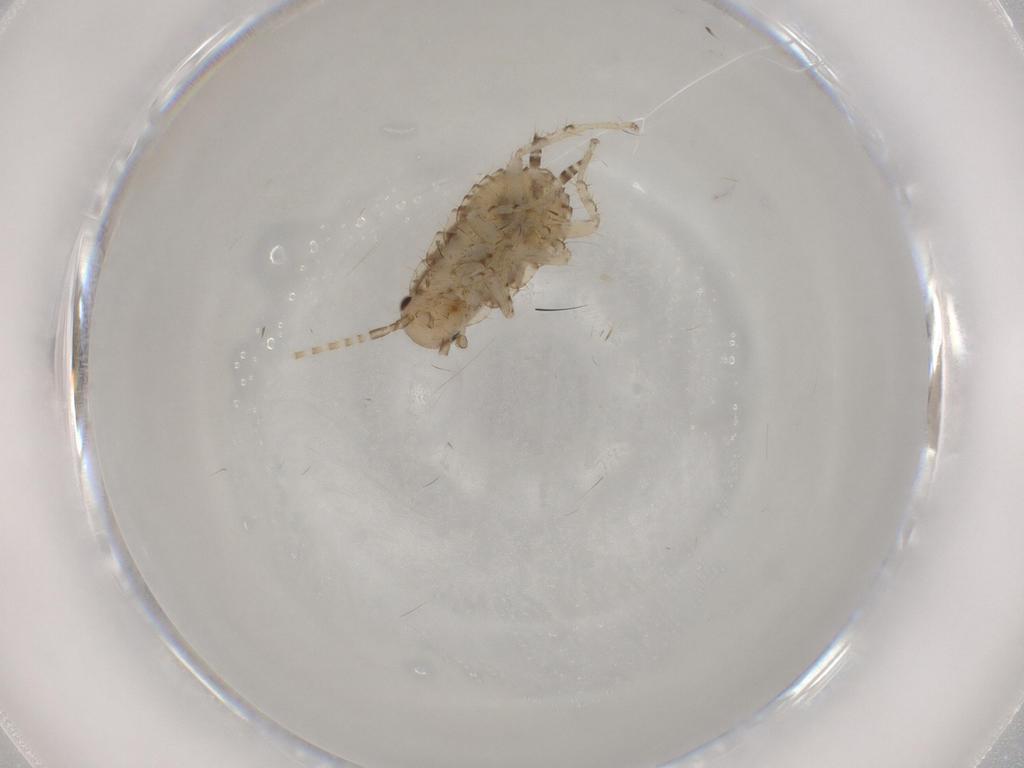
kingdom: Animalia
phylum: Arthropoda
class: Insecta
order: Blattodea
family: Ectobiidae
